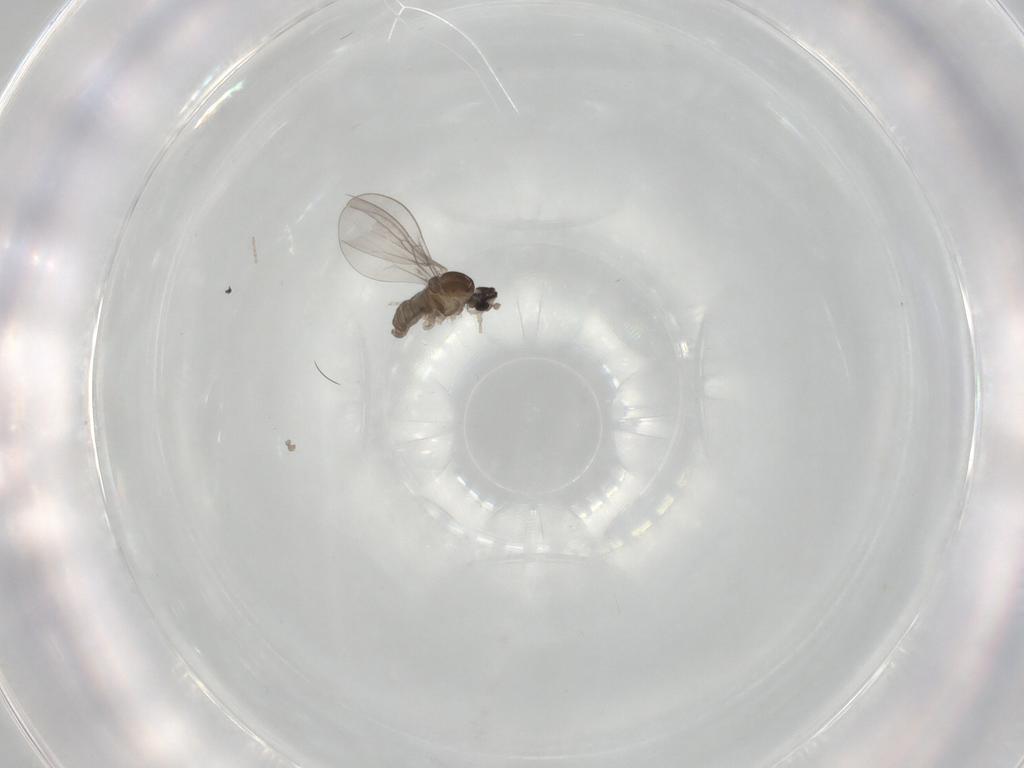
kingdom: Animalia
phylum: Arthropoda
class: Insecta
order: Diptera
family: Cecidomyiidae
